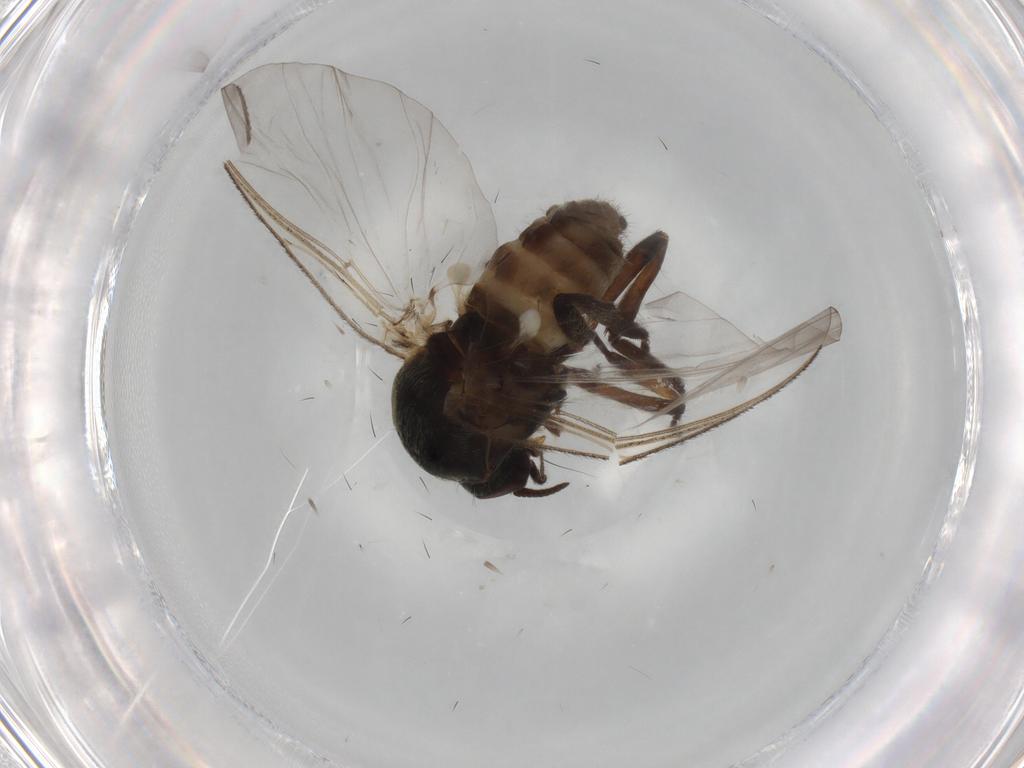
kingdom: Animalia
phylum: Arthropoda
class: Insecta
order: Diptera
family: Simuliidae
